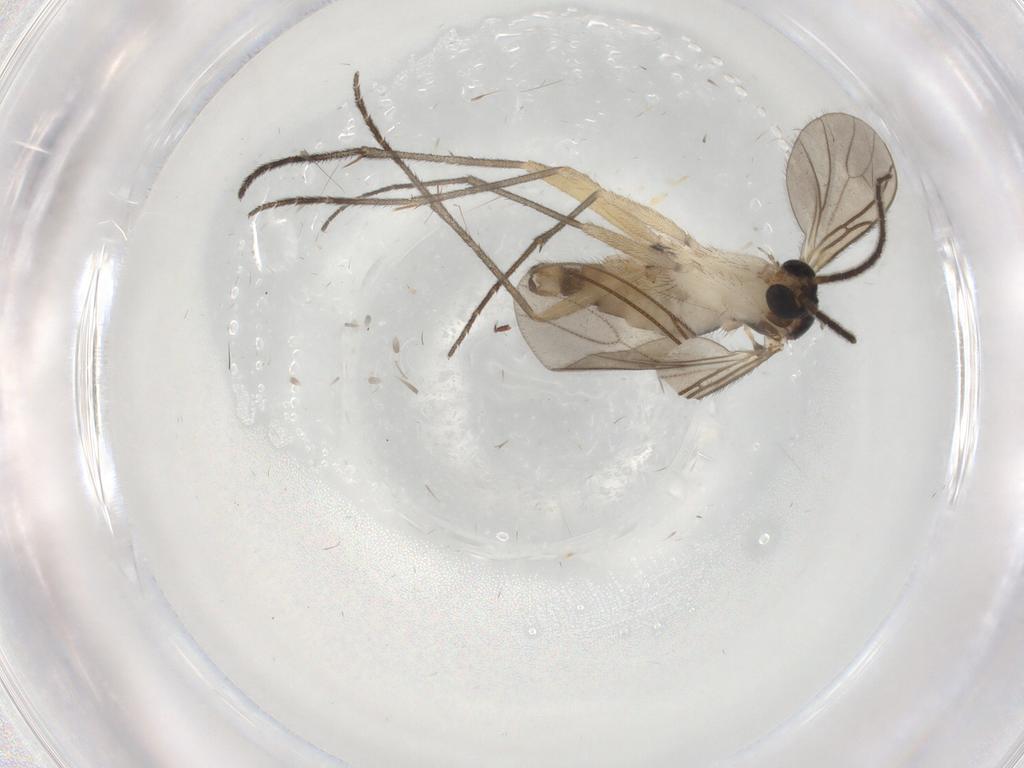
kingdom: Animalia
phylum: Arthropoda
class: Insecta
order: Diptera
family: Sciaridae
